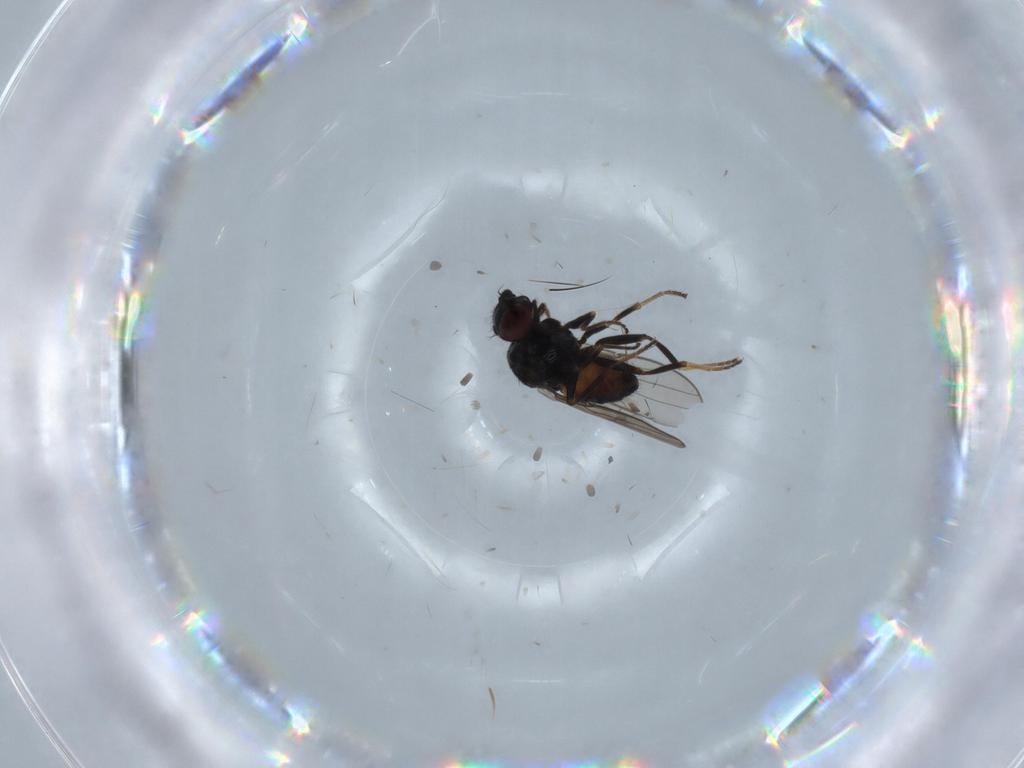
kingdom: Animalia
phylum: Arthropoda
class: Insecta
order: Diptera
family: Chloropidae
